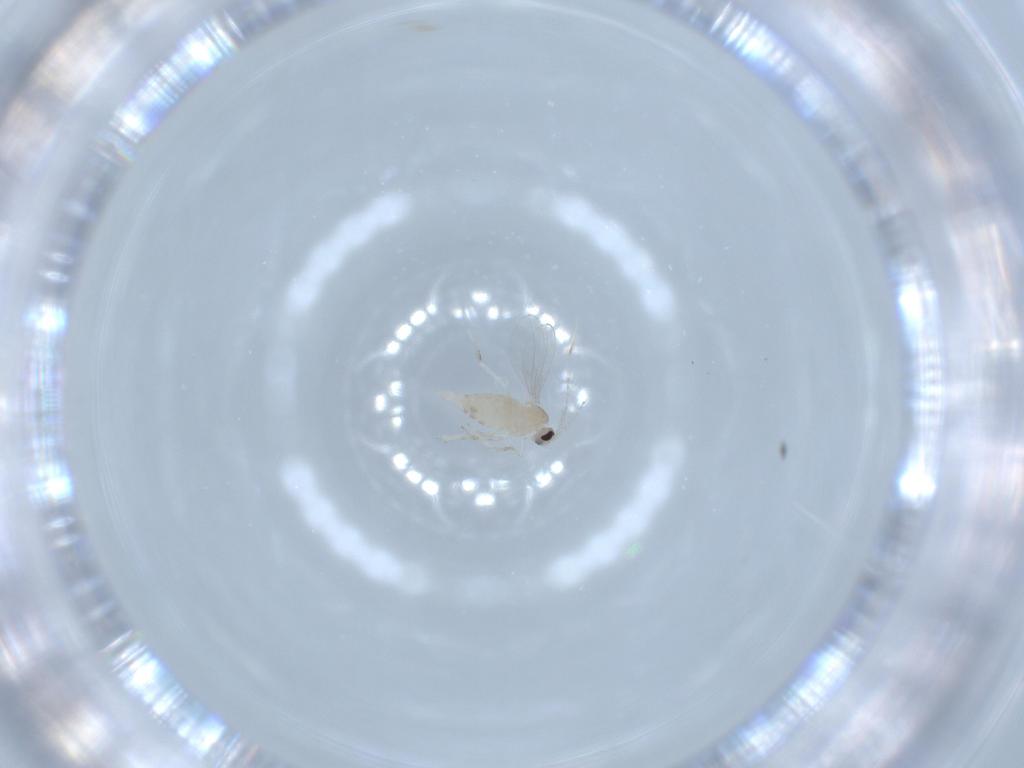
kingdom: Animalia
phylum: Arthropoda
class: Insecta
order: Diptera
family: Cecidomyiidae
